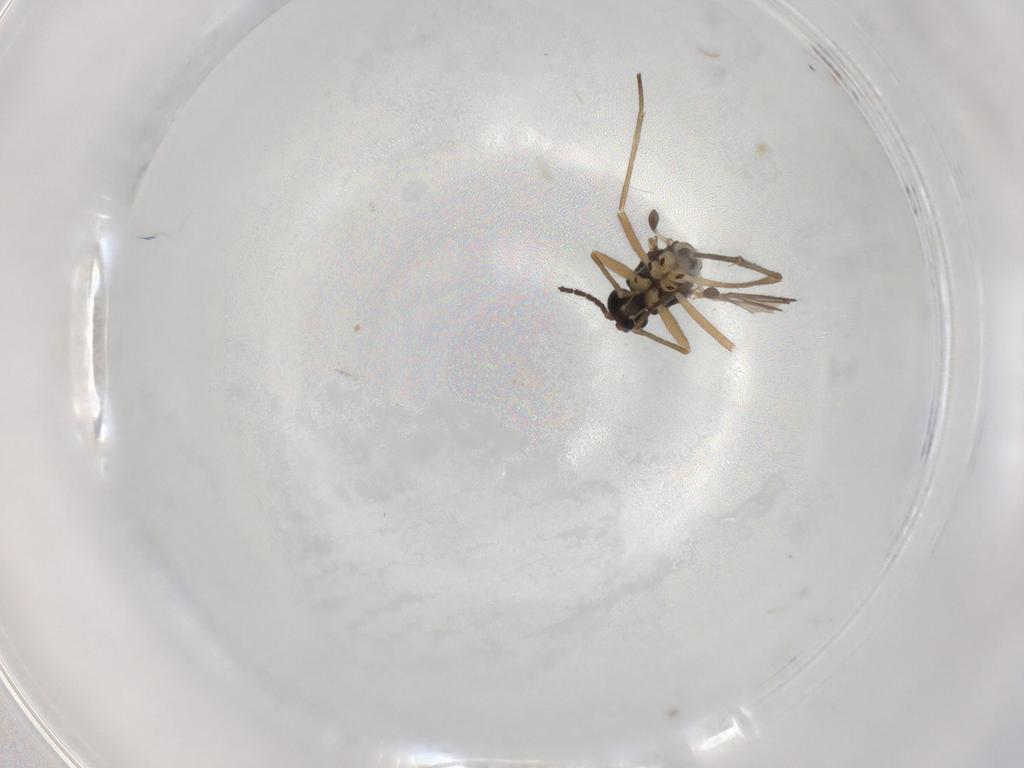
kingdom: Animalia
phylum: Arthropoda
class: Insecta
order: Diptera
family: Sciaridae
